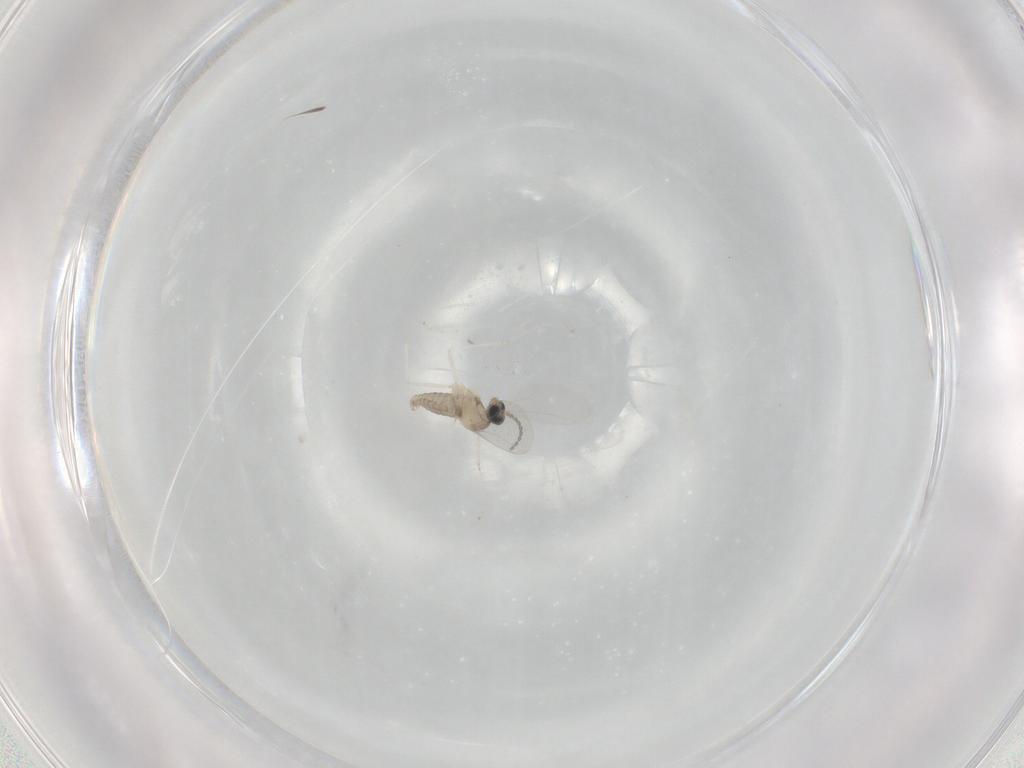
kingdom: Animalia
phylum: Arthropoda
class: Insecta
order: Diptera
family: Cecidomyiidae
